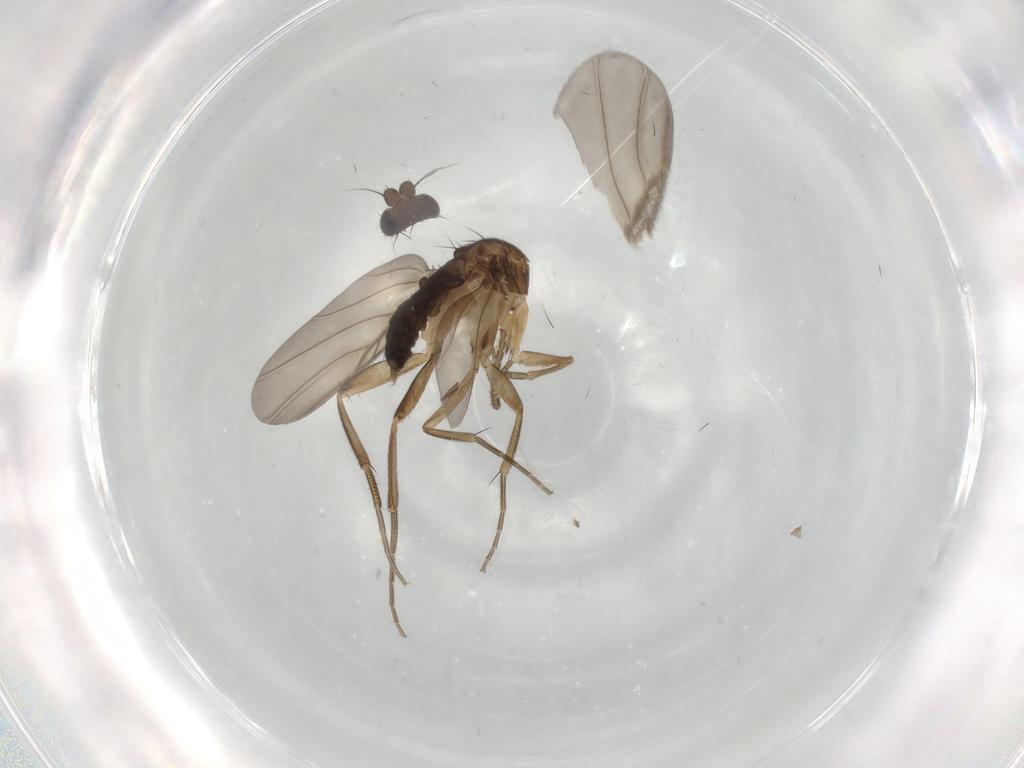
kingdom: Animalia
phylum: Arthropoda
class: Insecta
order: Diptera
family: Phoridae
